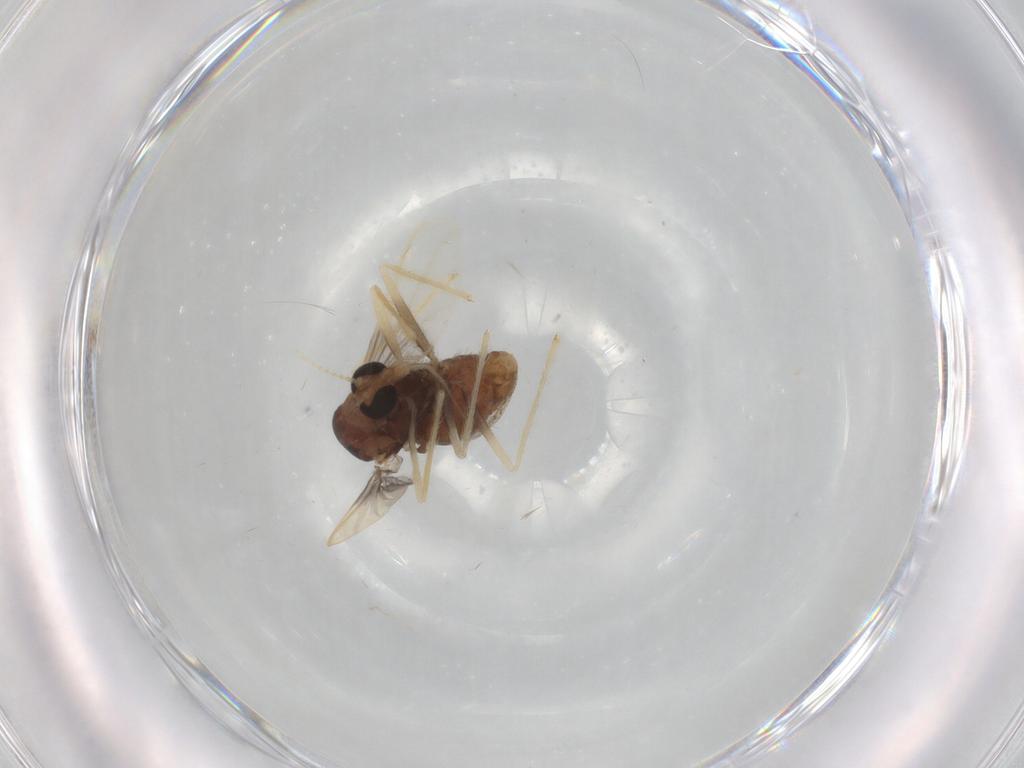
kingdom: Animalia
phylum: Arthropoda
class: Insecta
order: Diptera
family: Chironomidae
